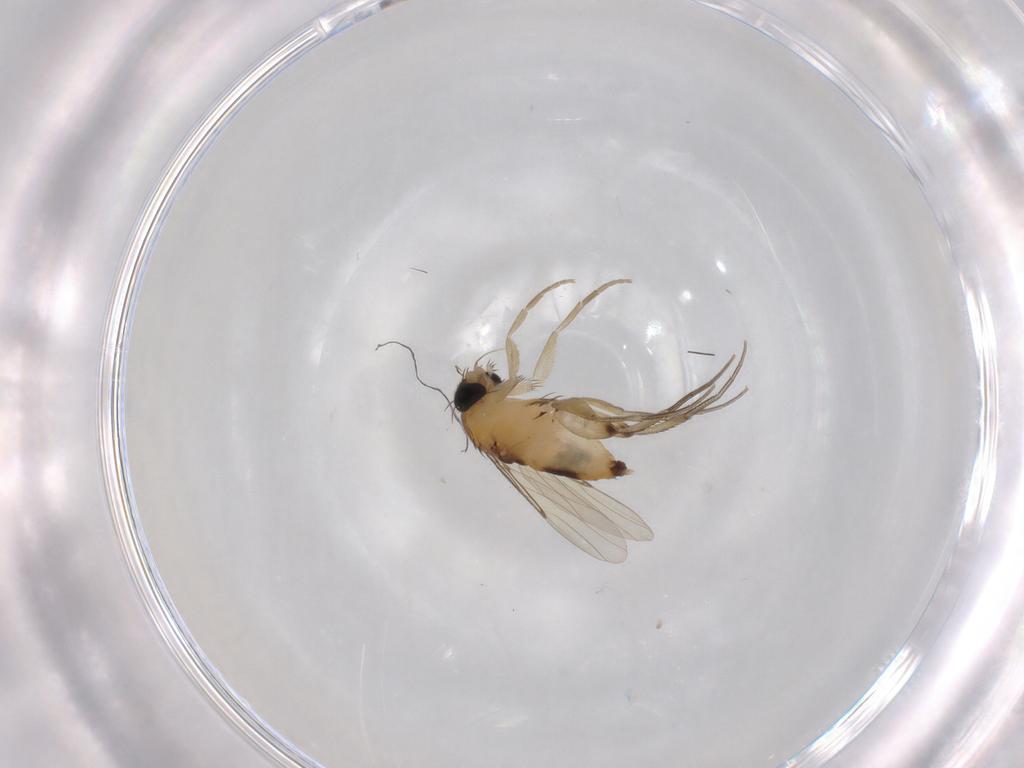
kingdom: Animalia
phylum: Arthropoda
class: Insecta
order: Diptera
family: Phoridae
